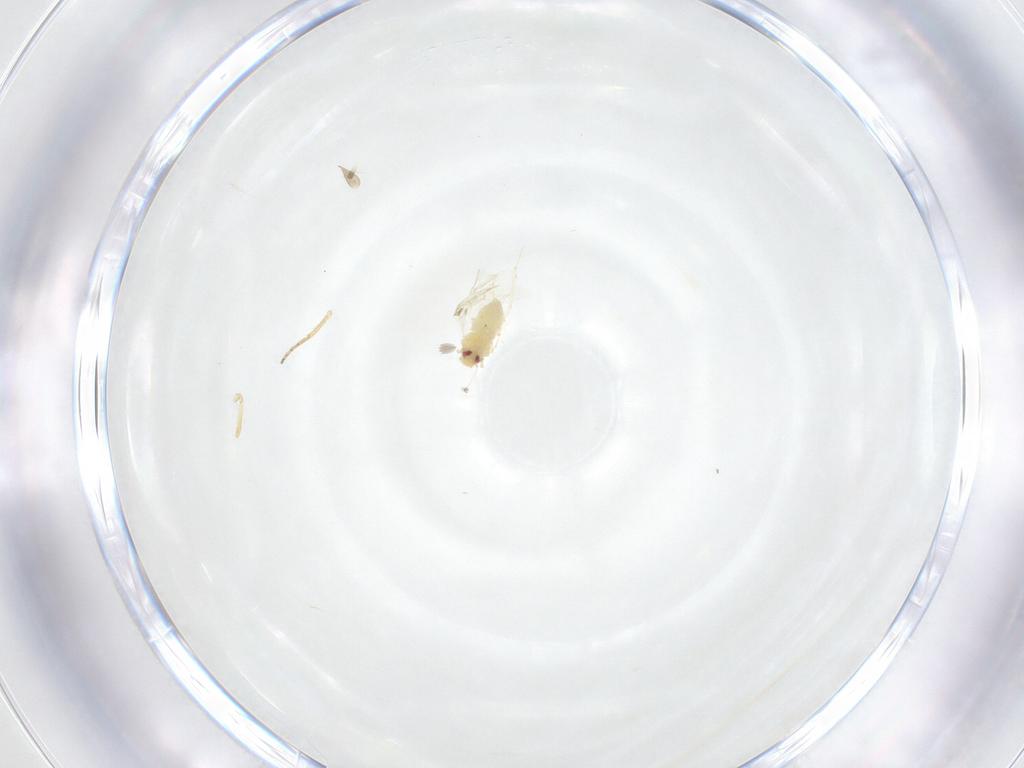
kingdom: Animalia
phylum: Arthropoda
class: Insecta
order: Hemiptera
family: Aleyrodidae
